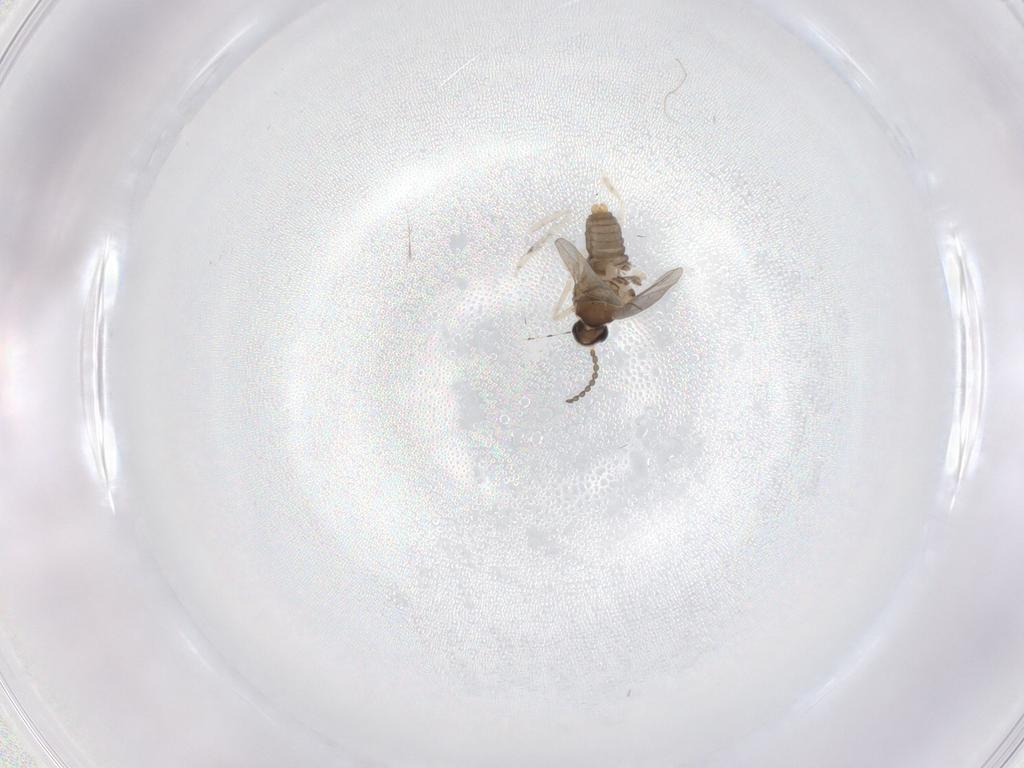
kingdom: Animalia
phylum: Arthropoda
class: Insecta
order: Diptera
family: Cecidomyiidae
